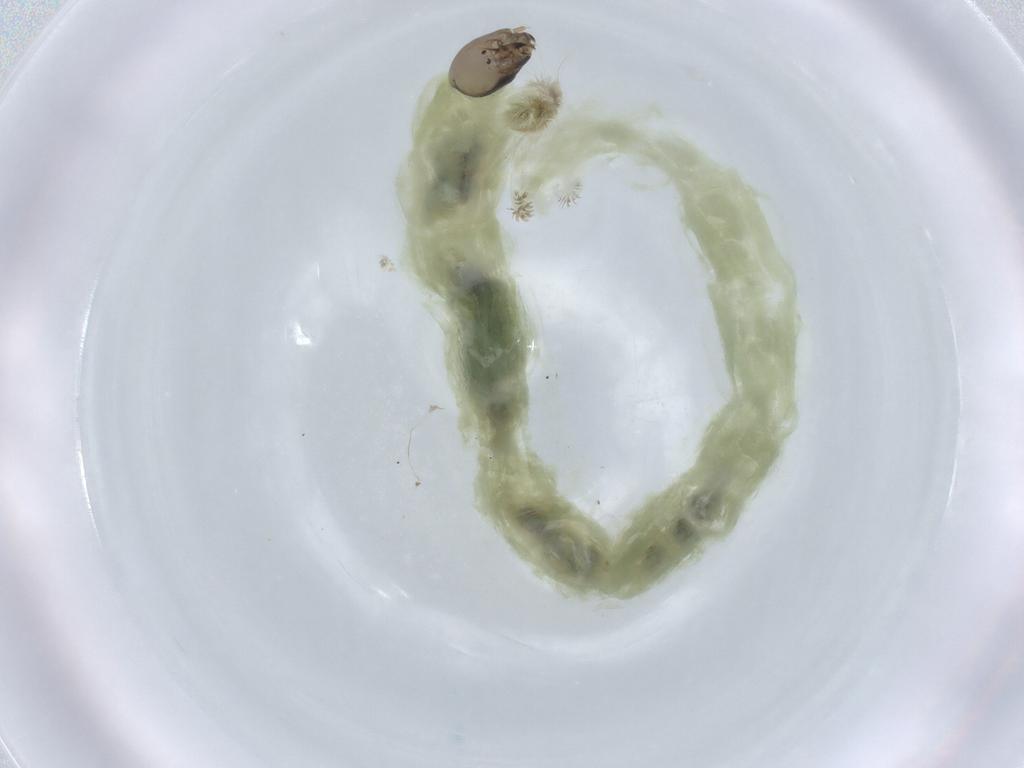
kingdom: Animalia
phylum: Arthropoda
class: Insecta
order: Diptera
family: Chironomidae
